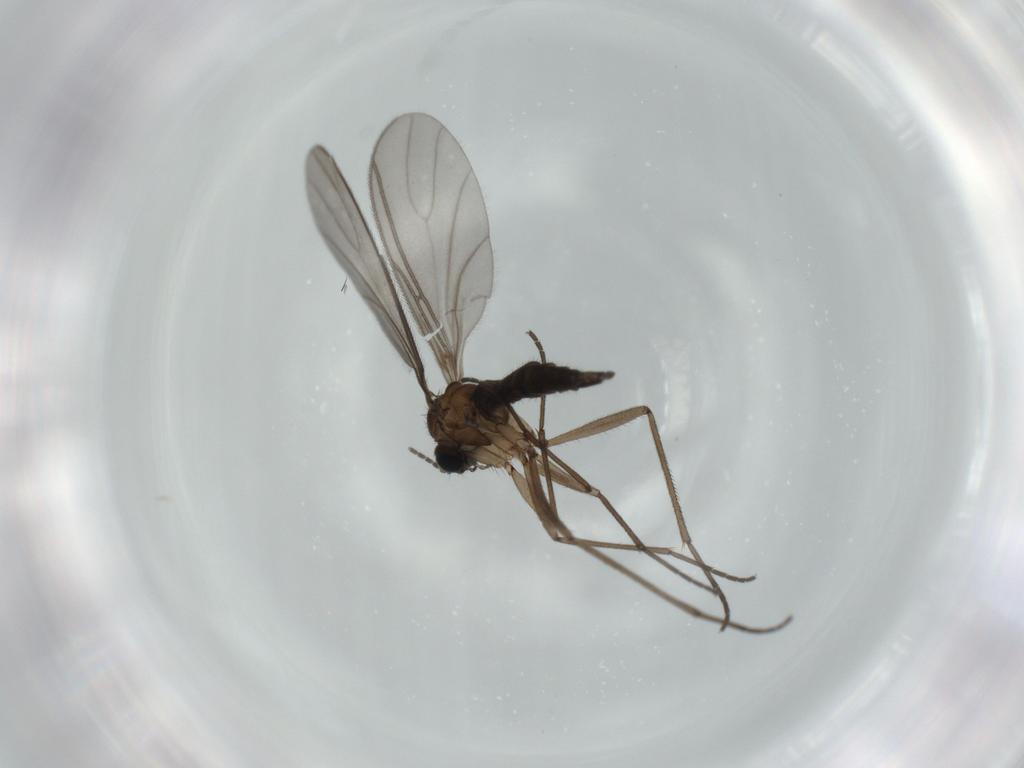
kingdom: Animalia
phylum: Arthropoda
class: Insecta
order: Diptera
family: Sciaridae
